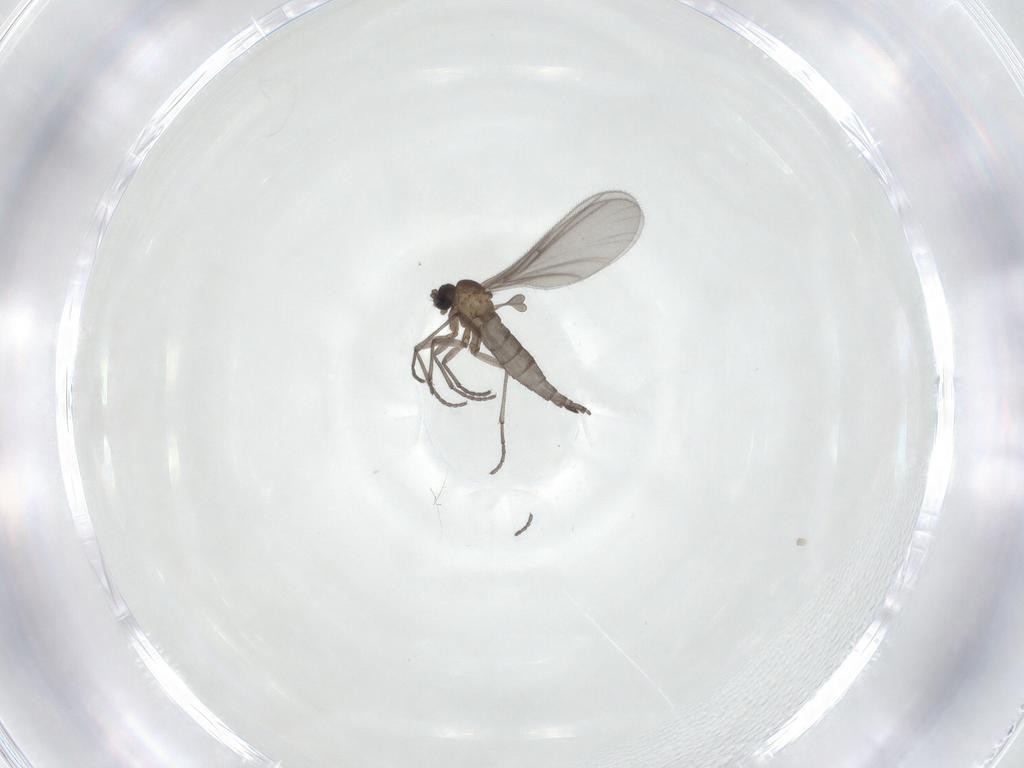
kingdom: Animalia
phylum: Arthropoda
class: Insecta
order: Diptera
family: Sciaridae
